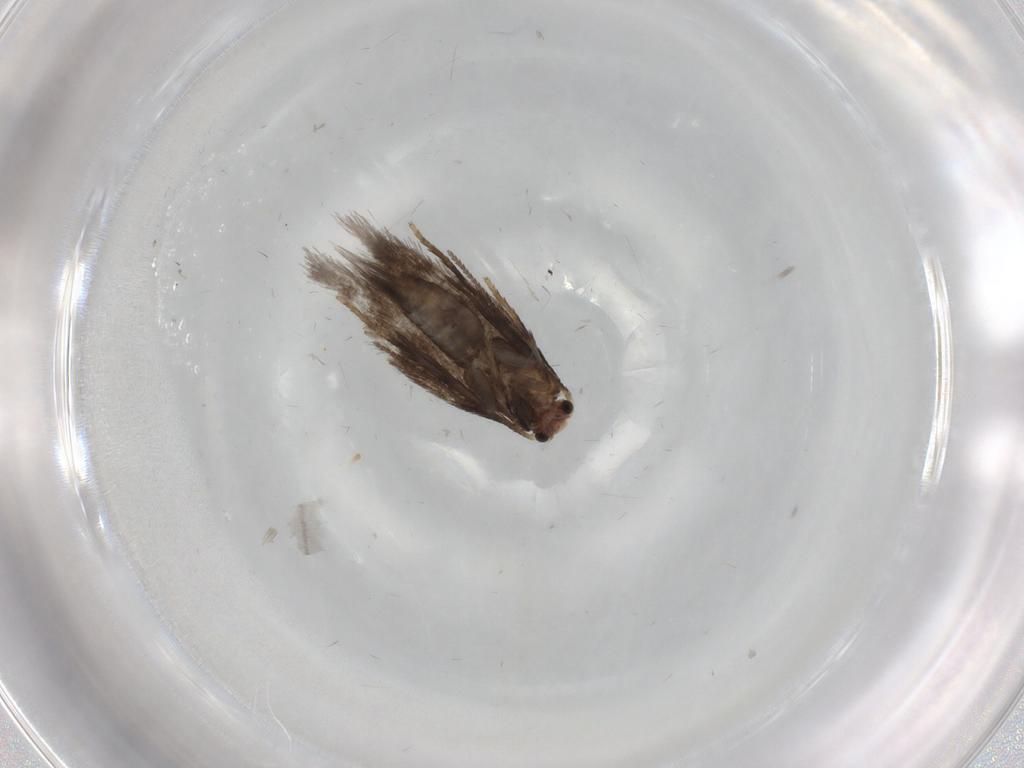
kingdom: Animalia
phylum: Arthropoda
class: Insecta
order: Lepidoptera
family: Nepticulidae
